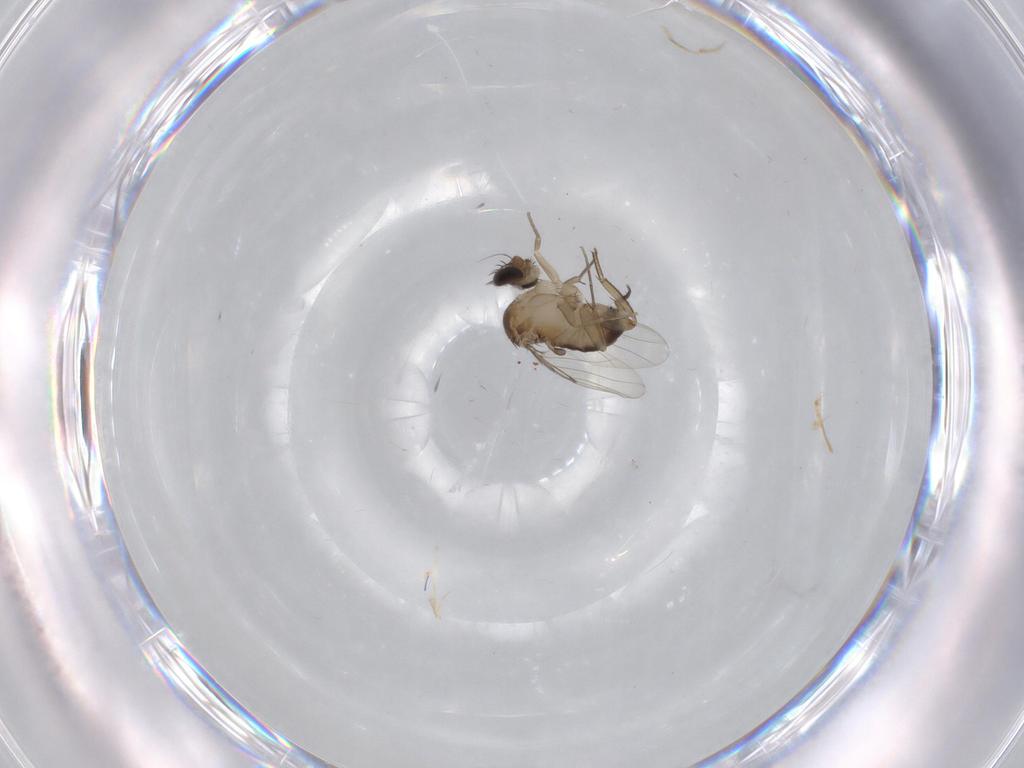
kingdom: Animalia
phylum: Arthropoda
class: Insecta
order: Diptera
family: Phoridae
